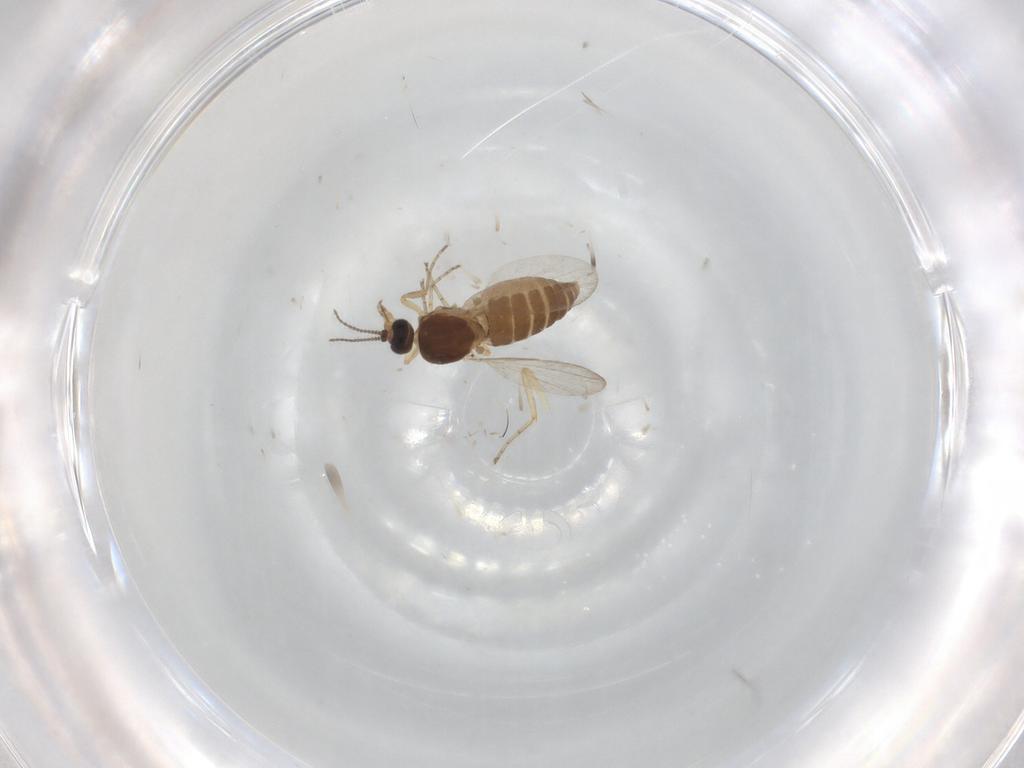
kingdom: Animalia
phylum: Arthropoda
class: Insecta
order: Diptera
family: Ceratopogonidae
